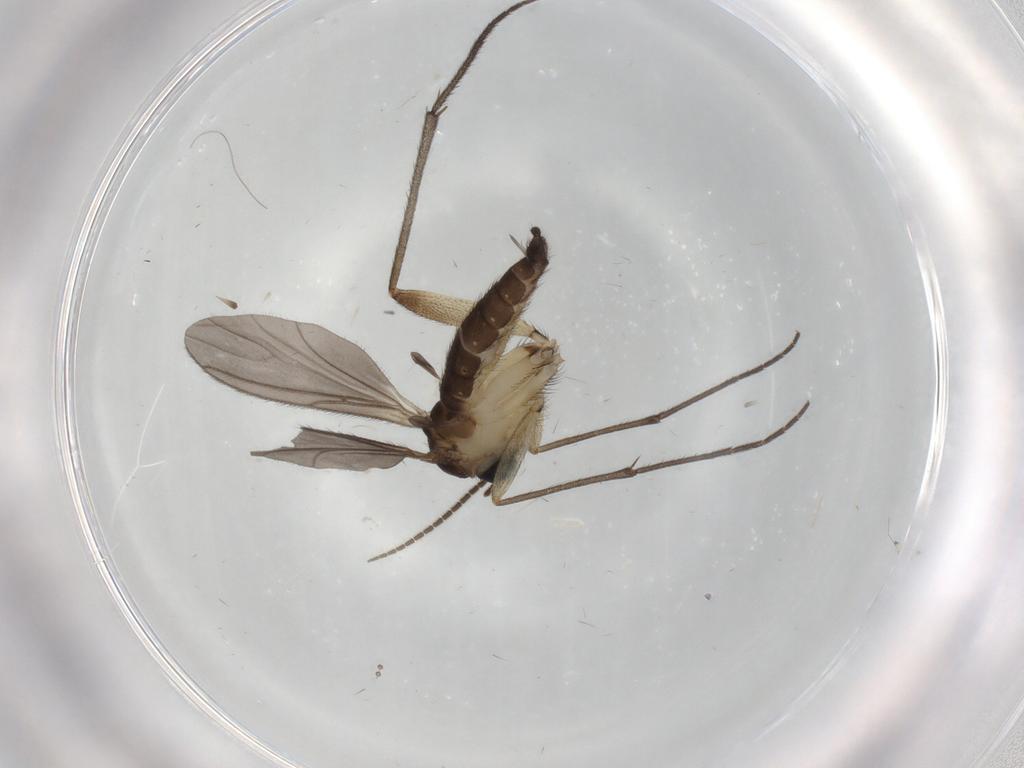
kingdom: Animalia
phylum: Arthropoda
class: Insecta
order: Diptera
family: Sciaridae
